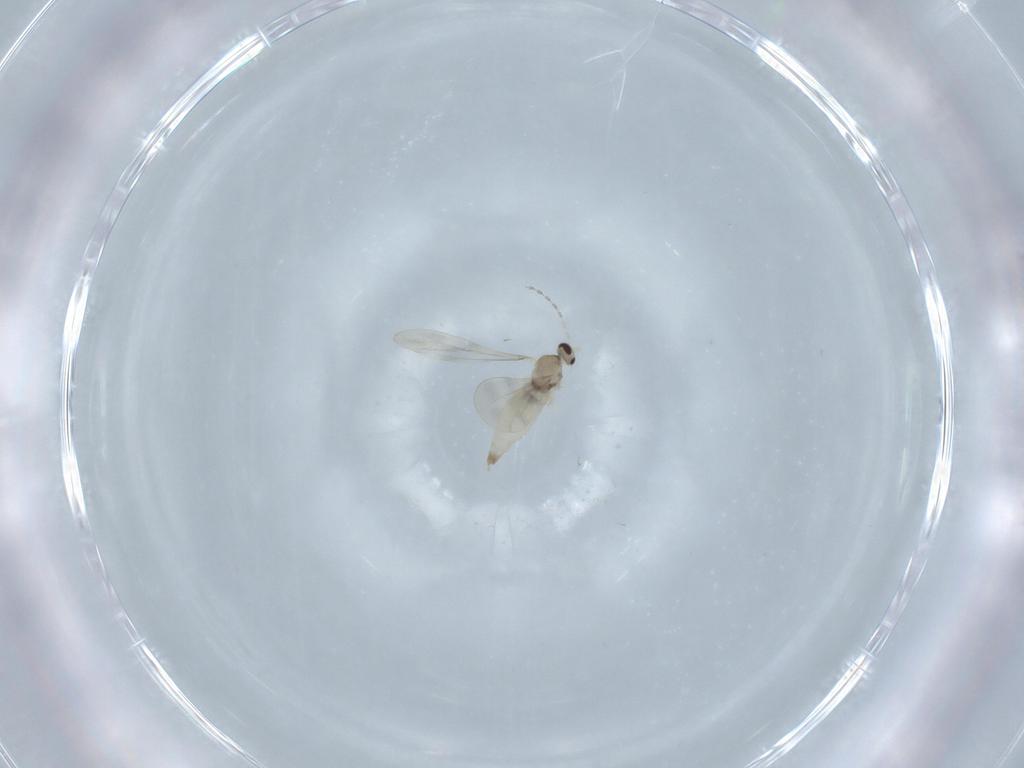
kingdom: Animalia
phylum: Arthropoda
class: Insecta
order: Diptera
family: Cecidomyiidae
